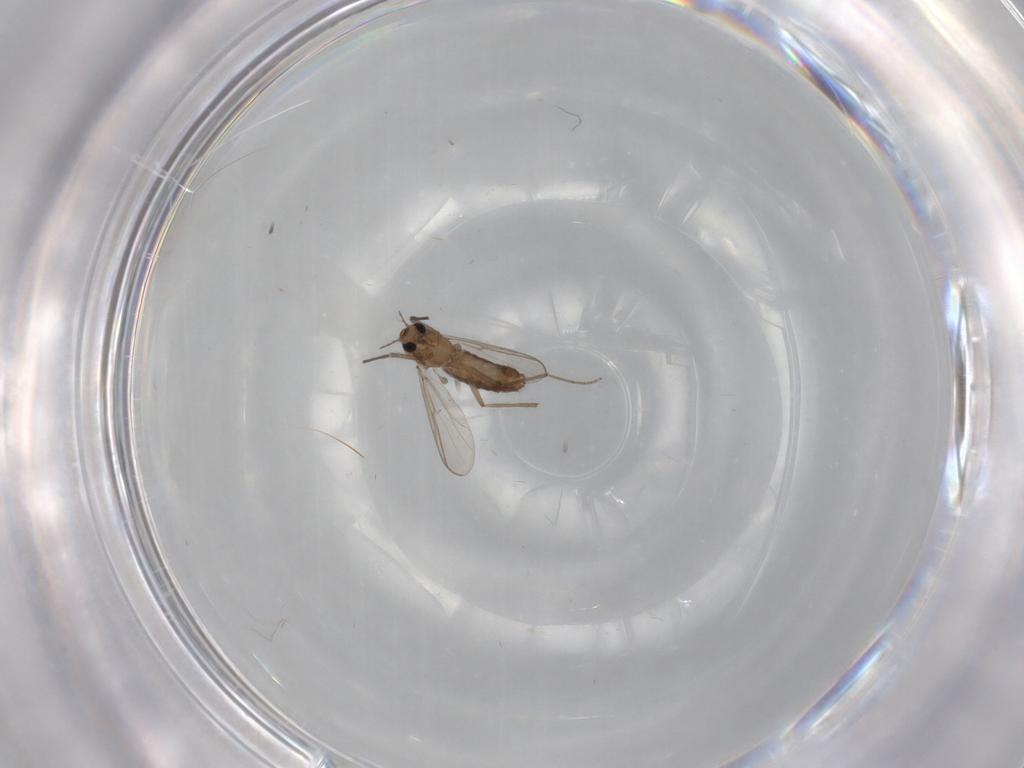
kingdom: Animalia
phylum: Arthropoda
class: Insecta
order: Diptera
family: Chironomidae
